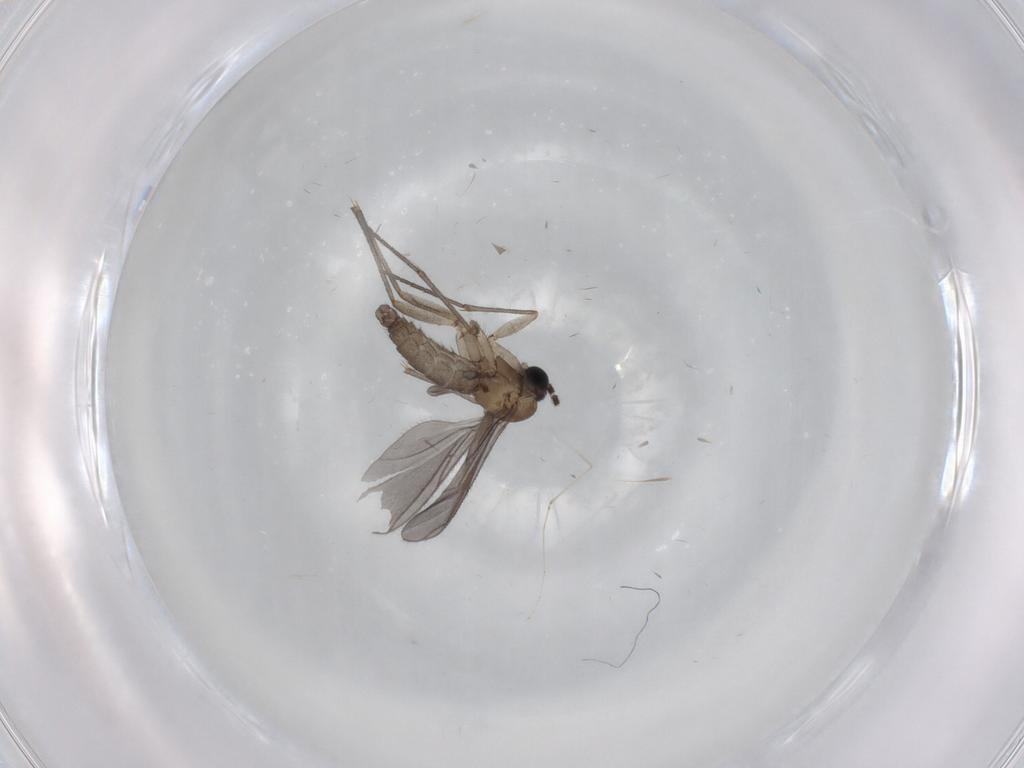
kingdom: Animalia
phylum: Arthropoda
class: Insecta
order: Diptera
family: Sciaridae
